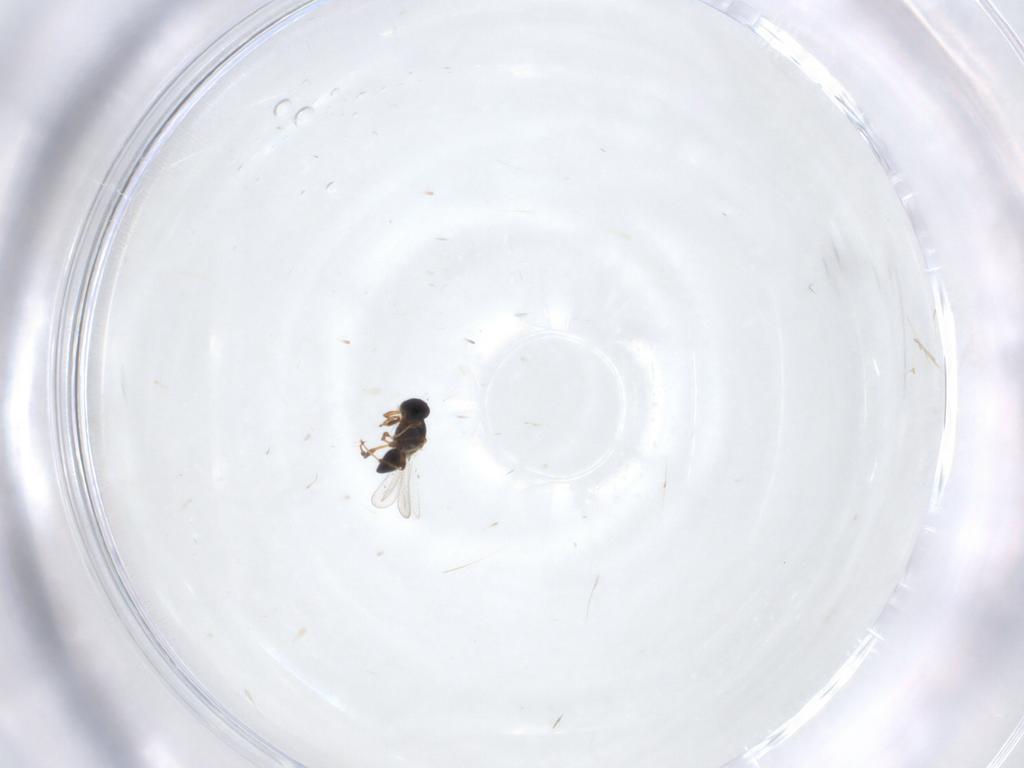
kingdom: Animalia
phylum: Arthropoda
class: Insecta
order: Hymenoptera
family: Platygastridae
